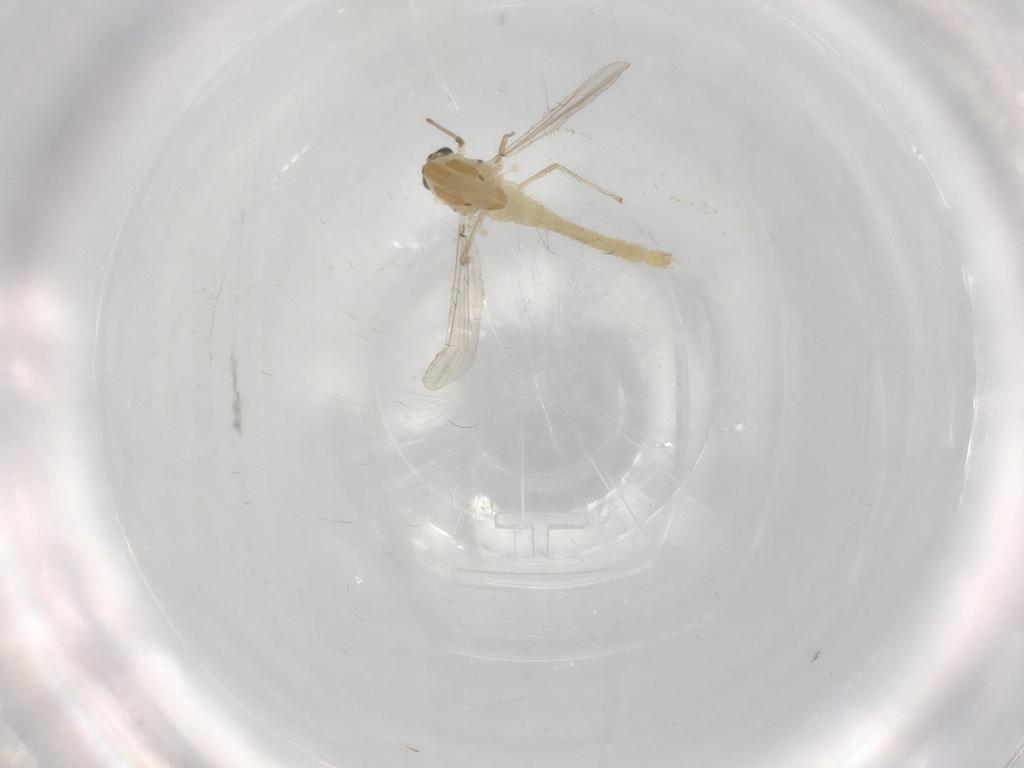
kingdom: Animalia
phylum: Arthropoda
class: Insecta
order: Diptera
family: Chironomidae
